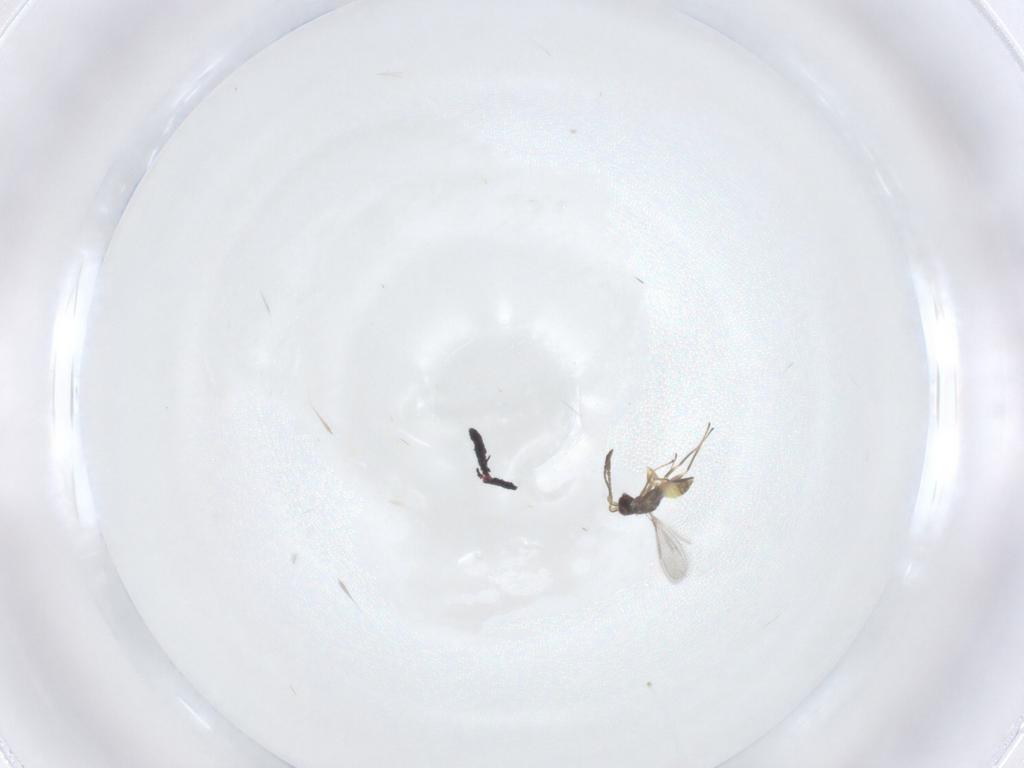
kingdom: Animalia
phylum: Arthropoda
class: Insecta
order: Hymenoptera
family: Mymaridae
